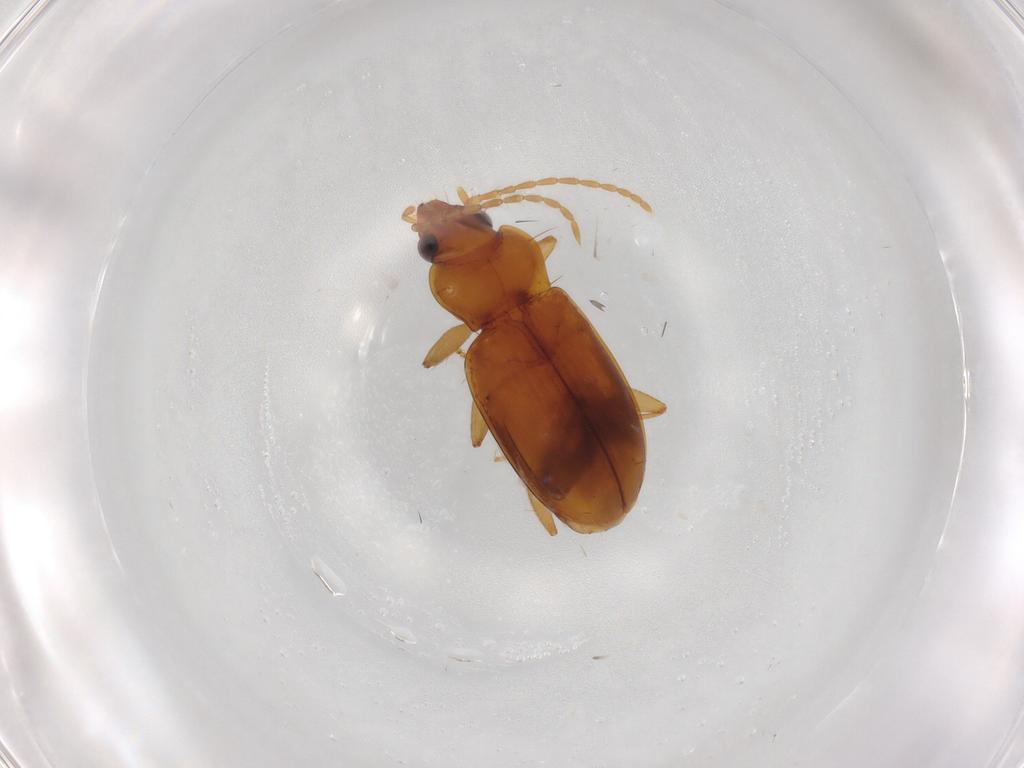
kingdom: Animalia
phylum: Arthropoda
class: Insecta
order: Coleoptera
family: Carabidae
